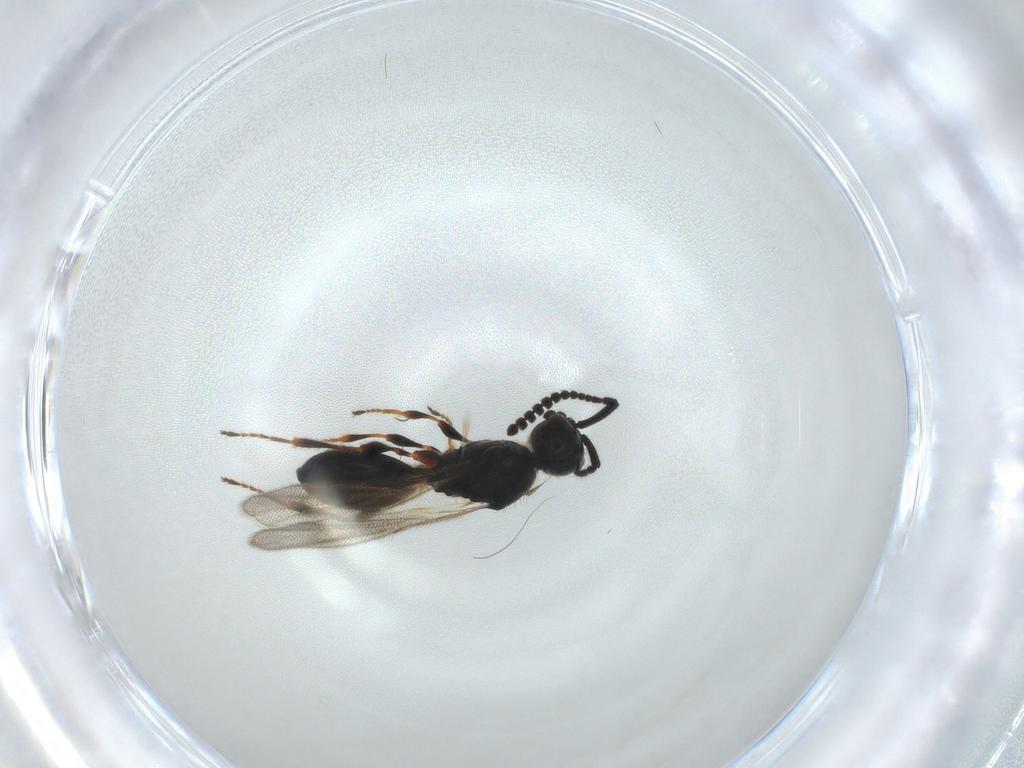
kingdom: Animalia
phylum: Arthropoda
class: Insecta
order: Hymenoptera
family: Diapriidae
